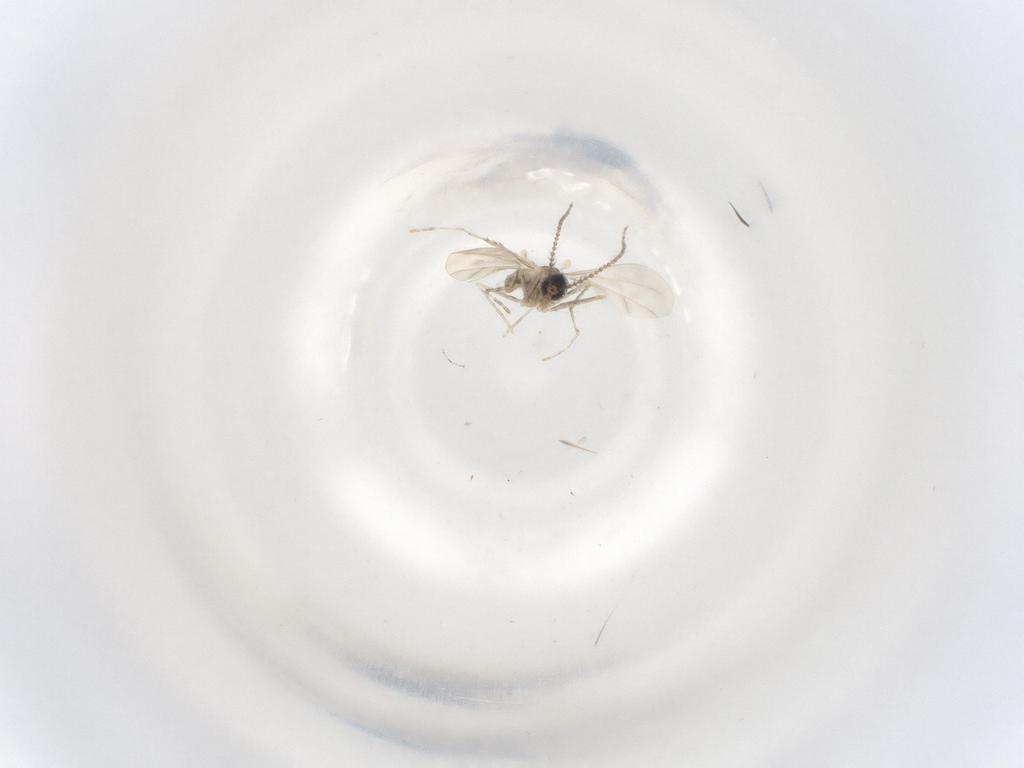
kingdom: Animalia
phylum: Arthropoda
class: Insecta
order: Diptera
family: Cecidomyiidae
